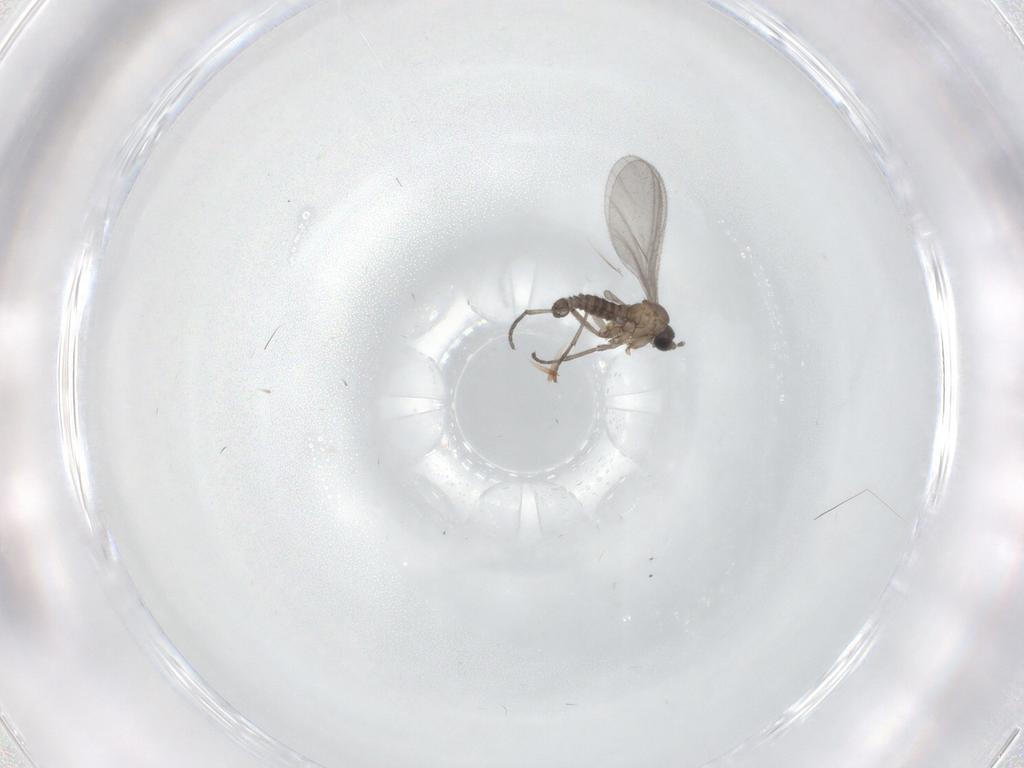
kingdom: Animalia
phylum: Arthropoda
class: Insecta
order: Diptera
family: Sciaridae
